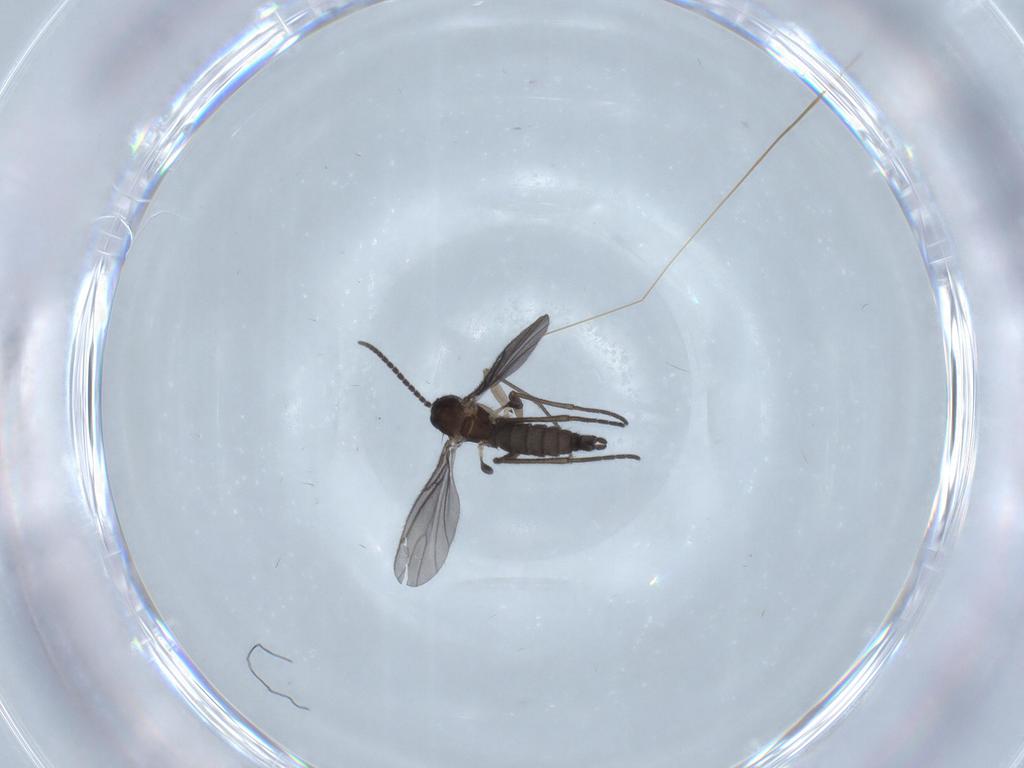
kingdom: Animalia
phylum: Arthropoda
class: Insecta
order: Diptera
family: Sciaridae
